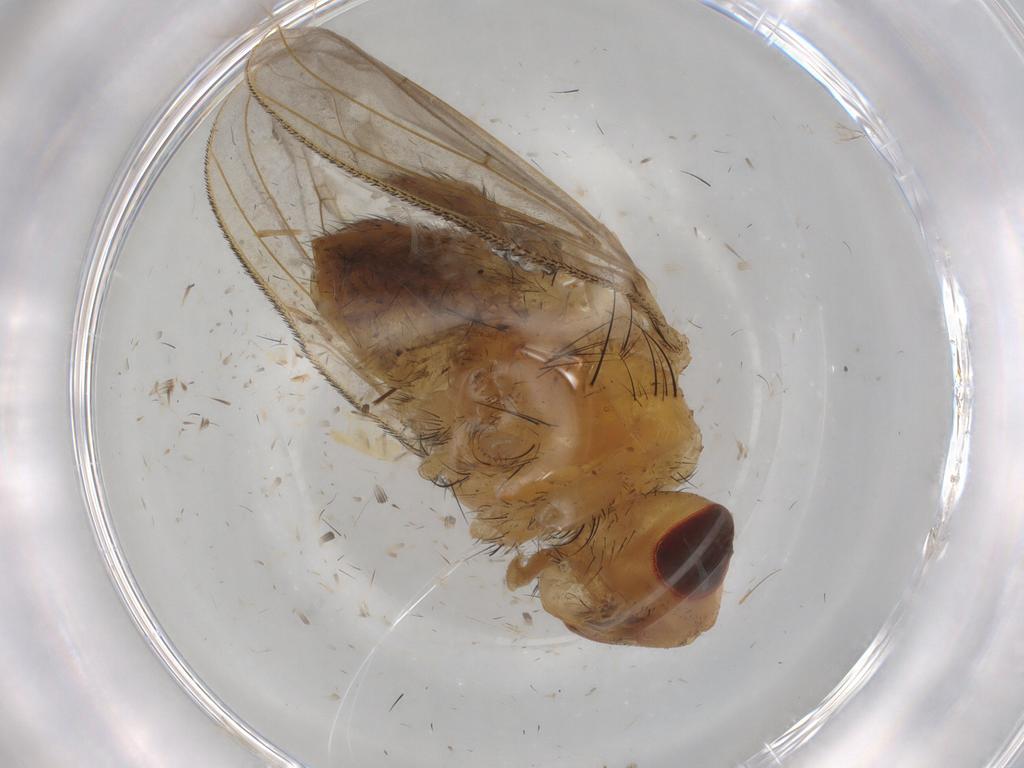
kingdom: Animalia
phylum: Arthropoda
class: Insecta
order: Diptera
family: Tachinidae
